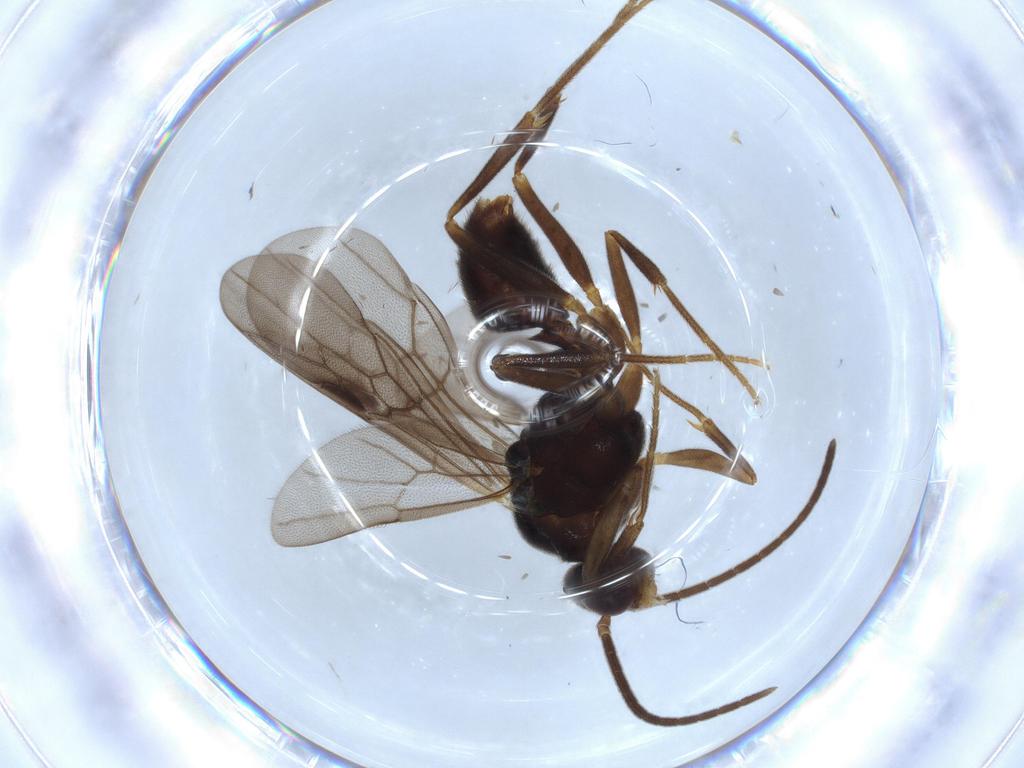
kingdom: Animalia
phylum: Arthropoda
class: Insecta
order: Hymenoptera
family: Formicidae
